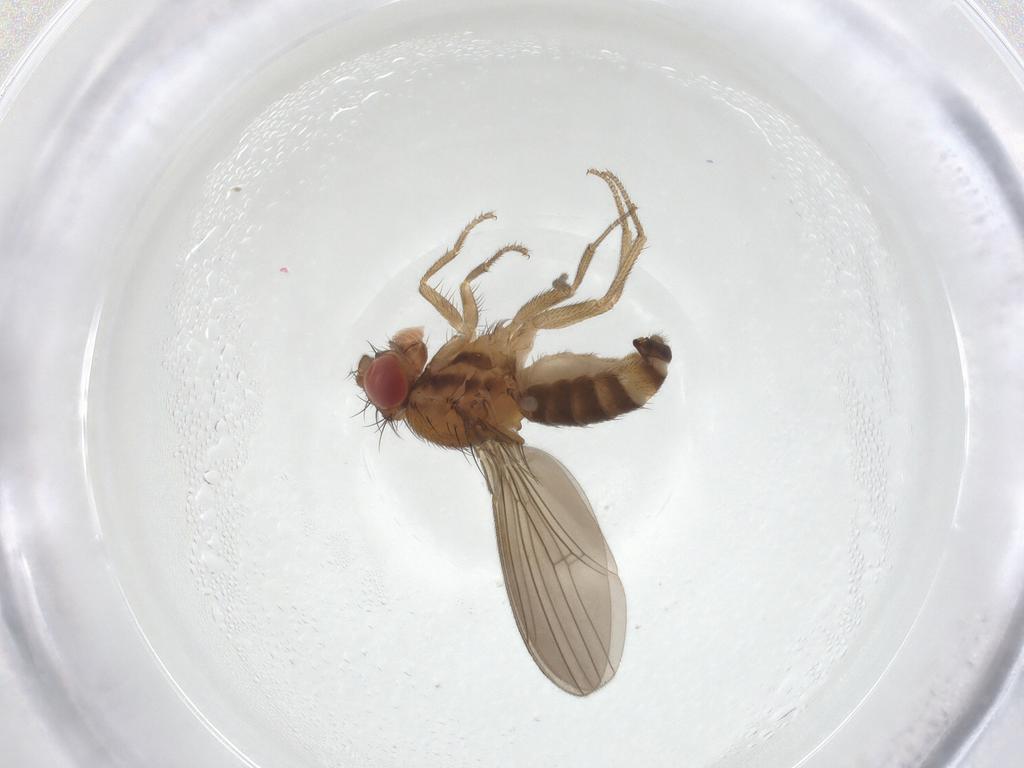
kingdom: Animalia
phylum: Arthropoda
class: Insecta
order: Diptera
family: Drosophilidae
